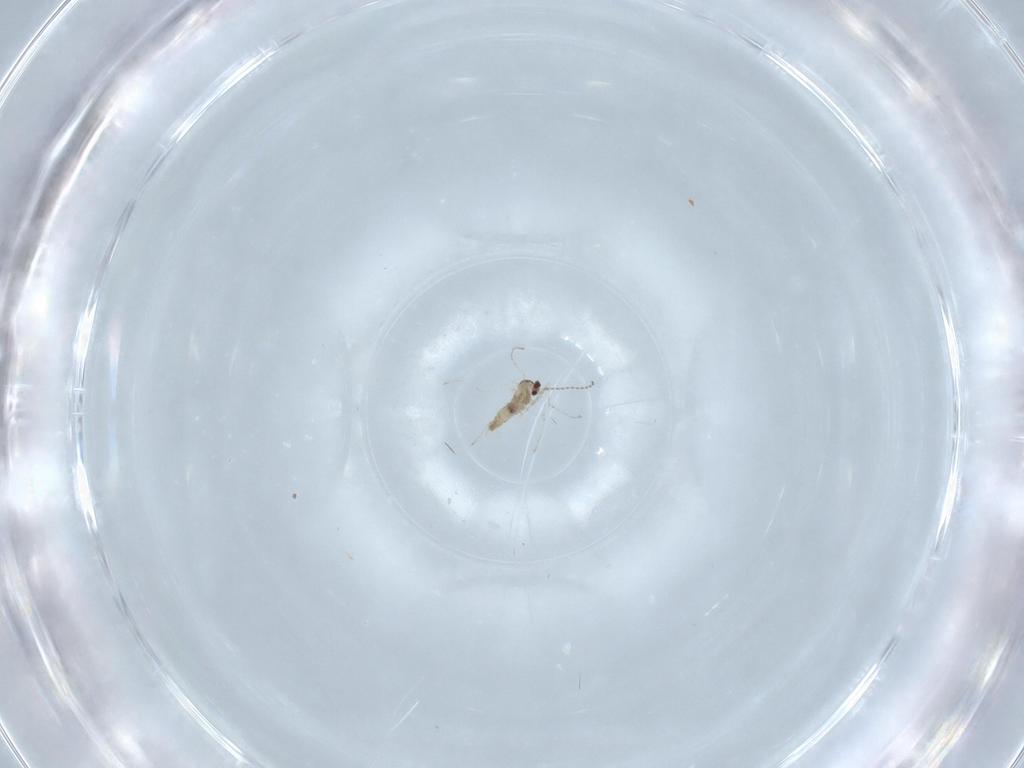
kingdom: Animalia
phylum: Arthropoda
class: Insecta
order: Diptera
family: Cecidomyiidae
